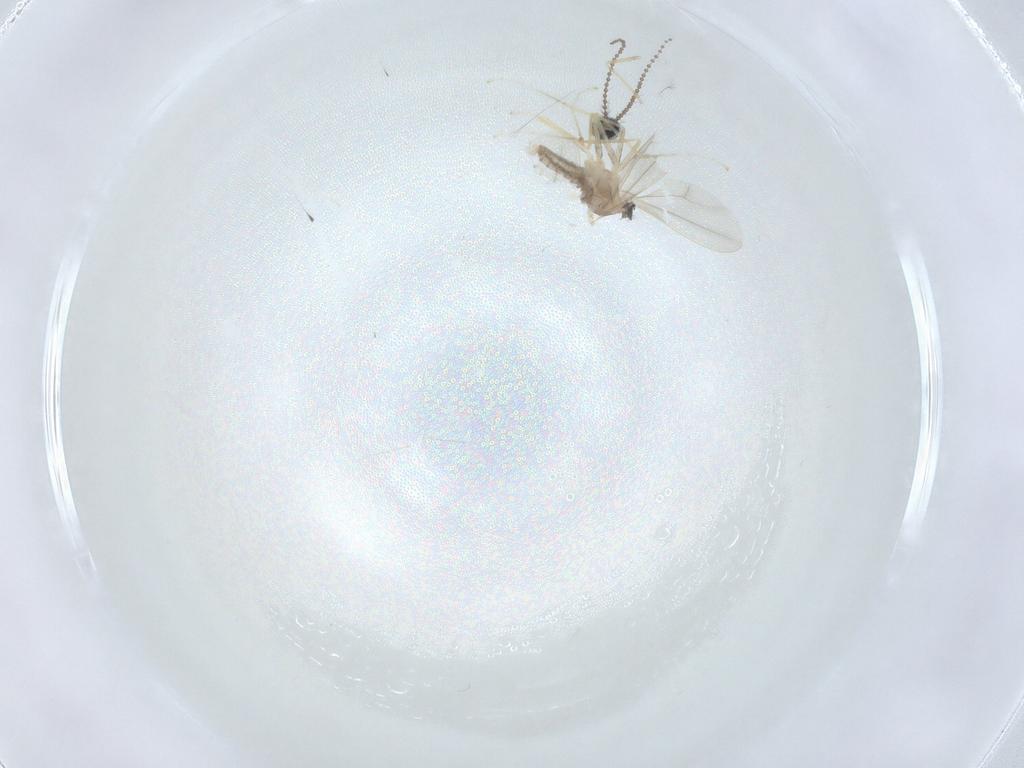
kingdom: Animalia
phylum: Arthropoda
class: Insecta
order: Diptera
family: Cecidomyiidae
